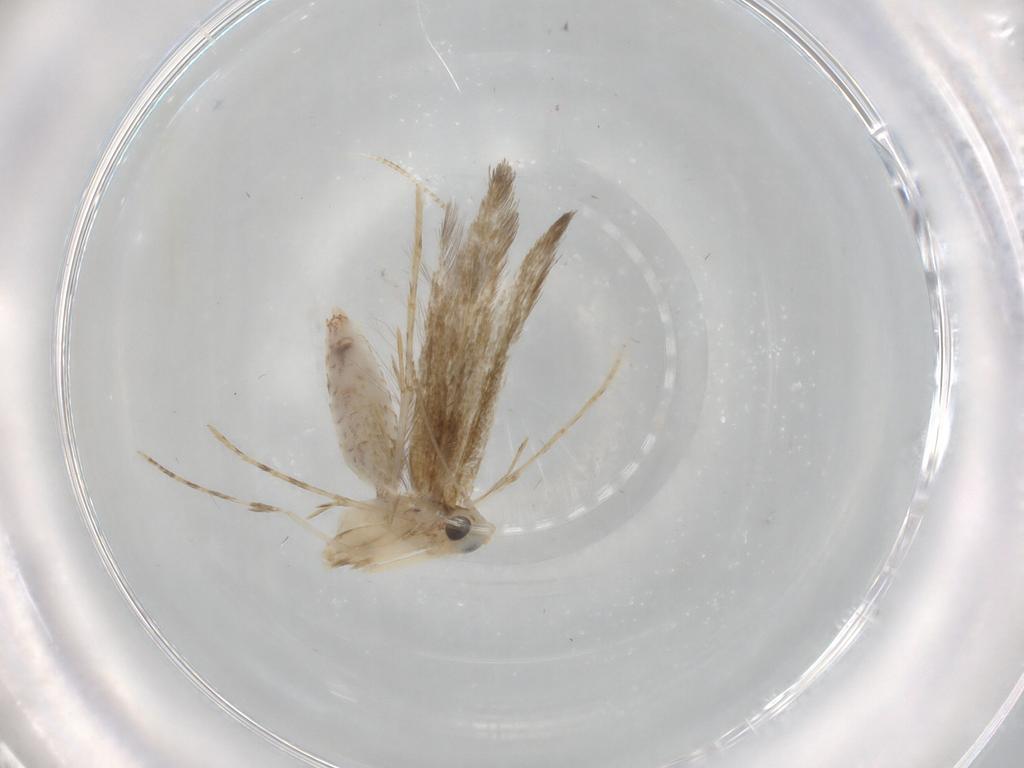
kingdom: Animalia
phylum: Arthropoda
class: Insecta
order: Lepidoptera
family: Lyonetiidae
